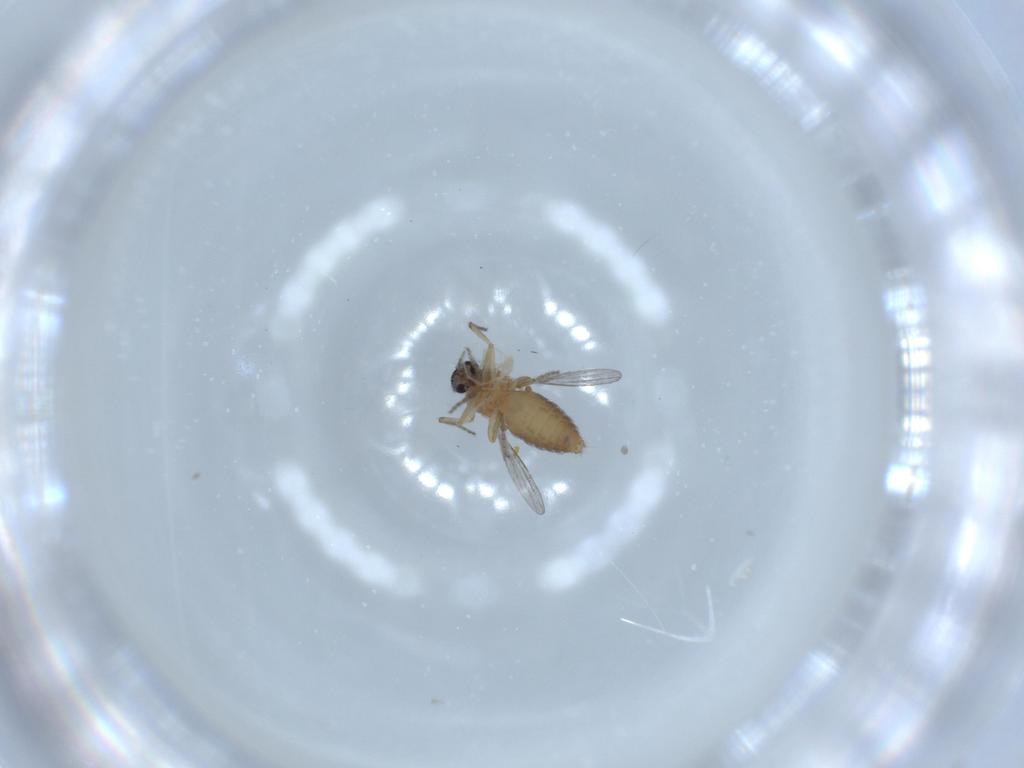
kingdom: Animalia
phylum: Arthropoda
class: Insecta
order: Diptera
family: Ceratopogonidae
